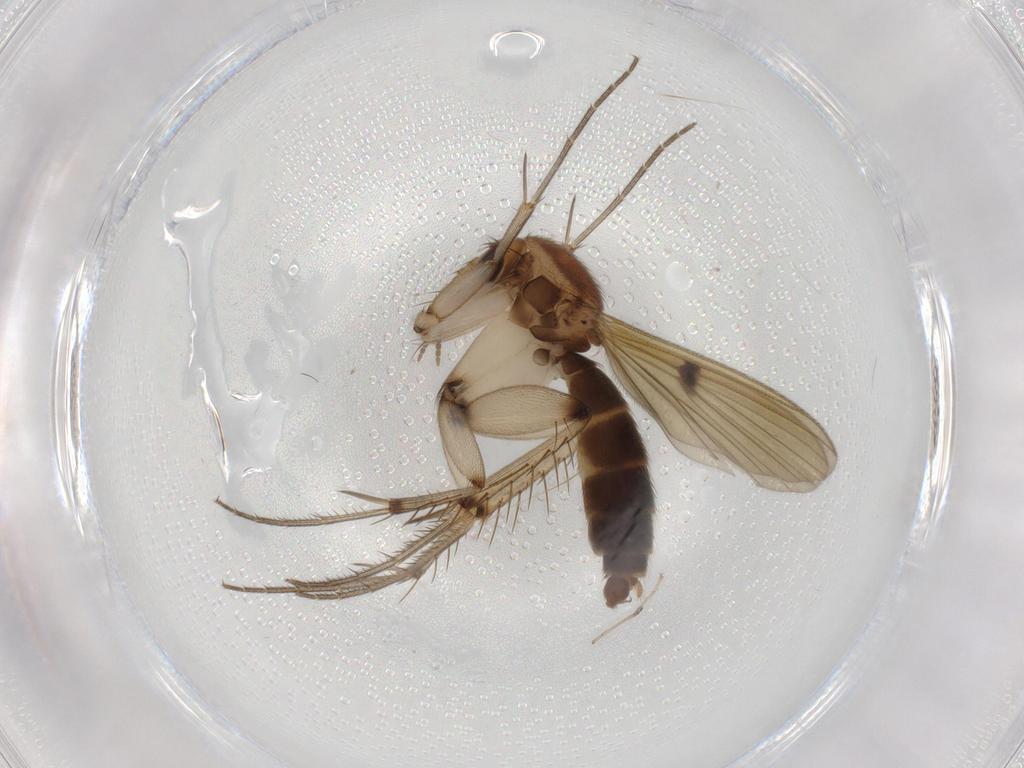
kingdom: Animalia
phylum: Arthropoda
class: Insecta
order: Diptera
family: Mycetophilidae
